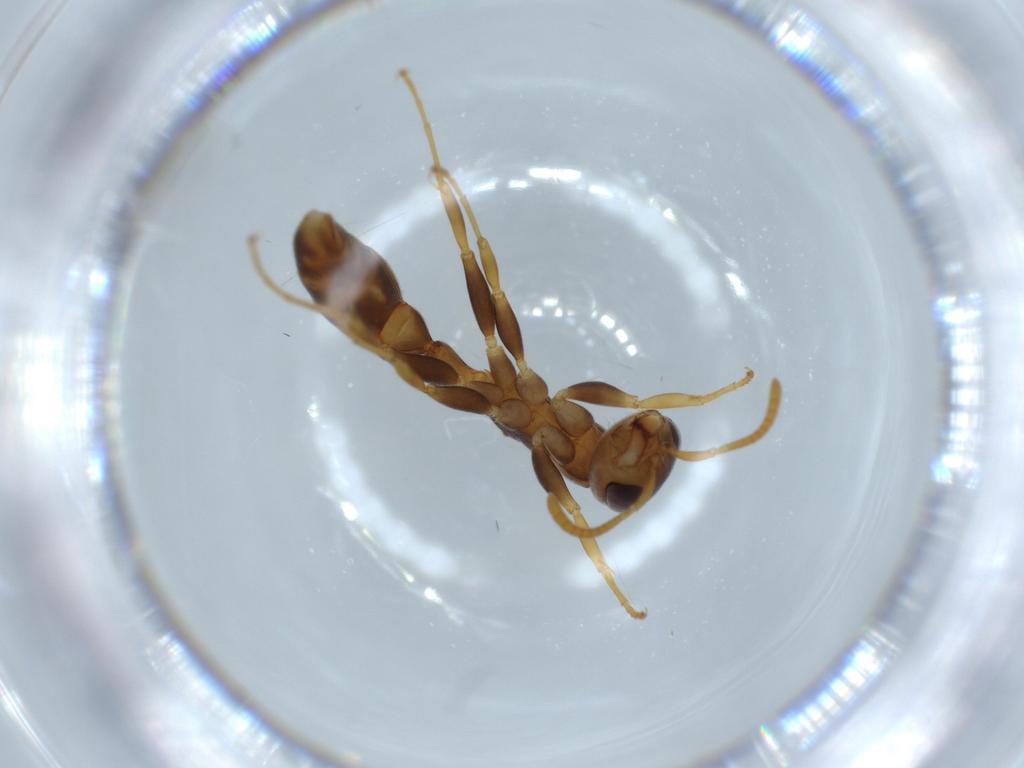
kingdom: Animalia
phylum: Arthropoda
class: Insecta
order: Hymenoptera
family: Formicidae
